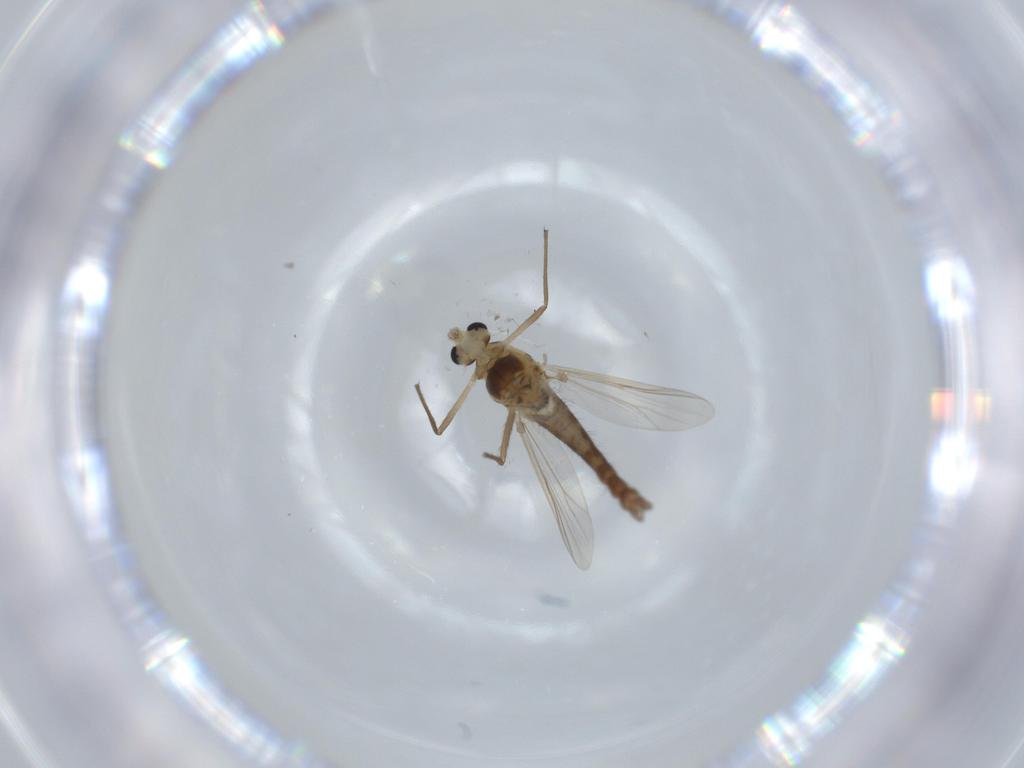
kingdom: Animalia
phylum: Arthropoda
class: Insecta
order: Diptera
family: Chironomidae
